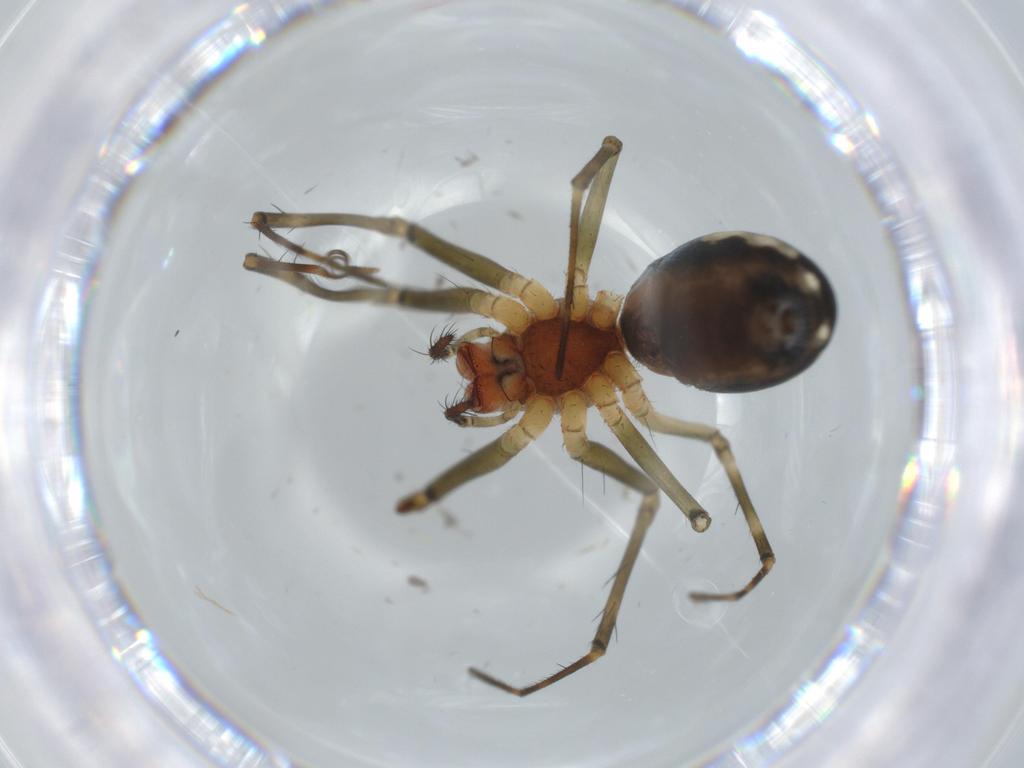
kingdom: Animalia
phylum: Arthropoda
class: Arachnida
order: Araneae
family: Linyphiidae
